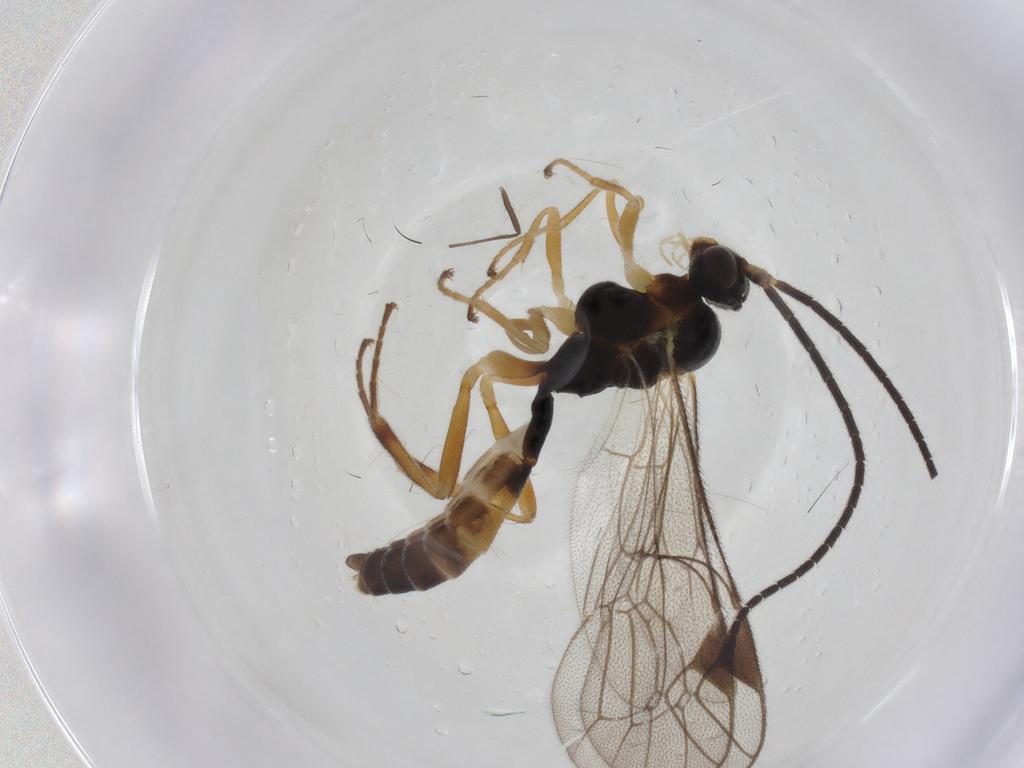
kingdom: Animalia
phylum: Arthropoda
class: Insecta
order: Hymenoptera
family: Ichneumonidae
